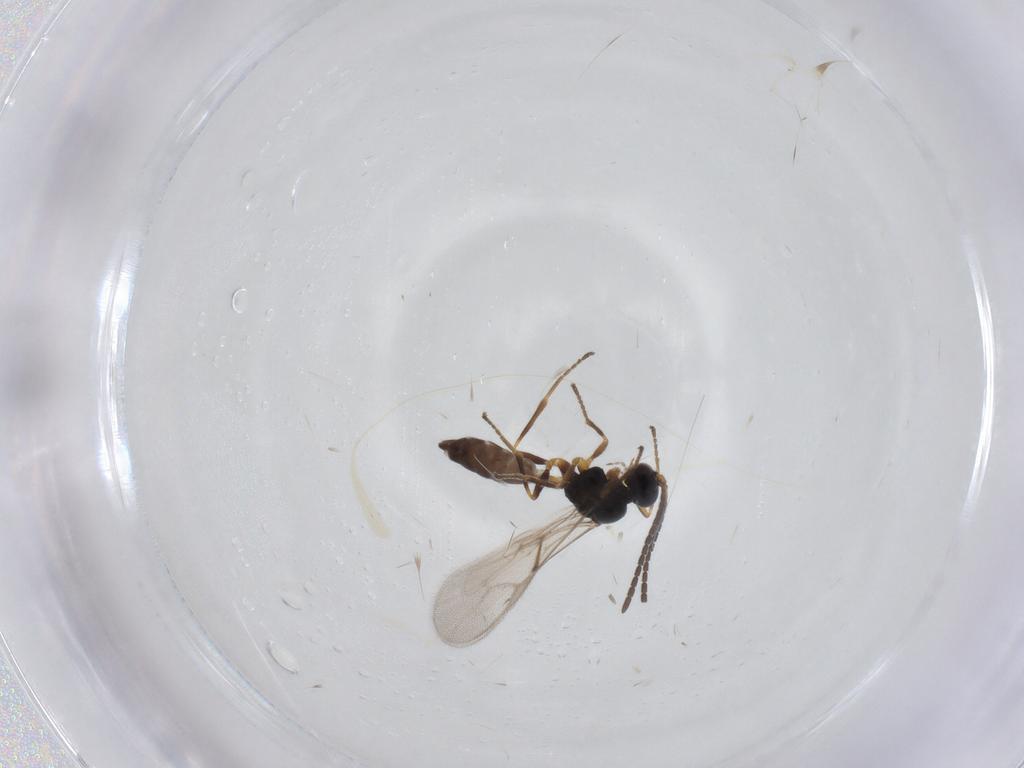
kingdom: Animalia
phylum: Arthropoda
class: Insecta
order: Hymenoptera
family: Braconidae
